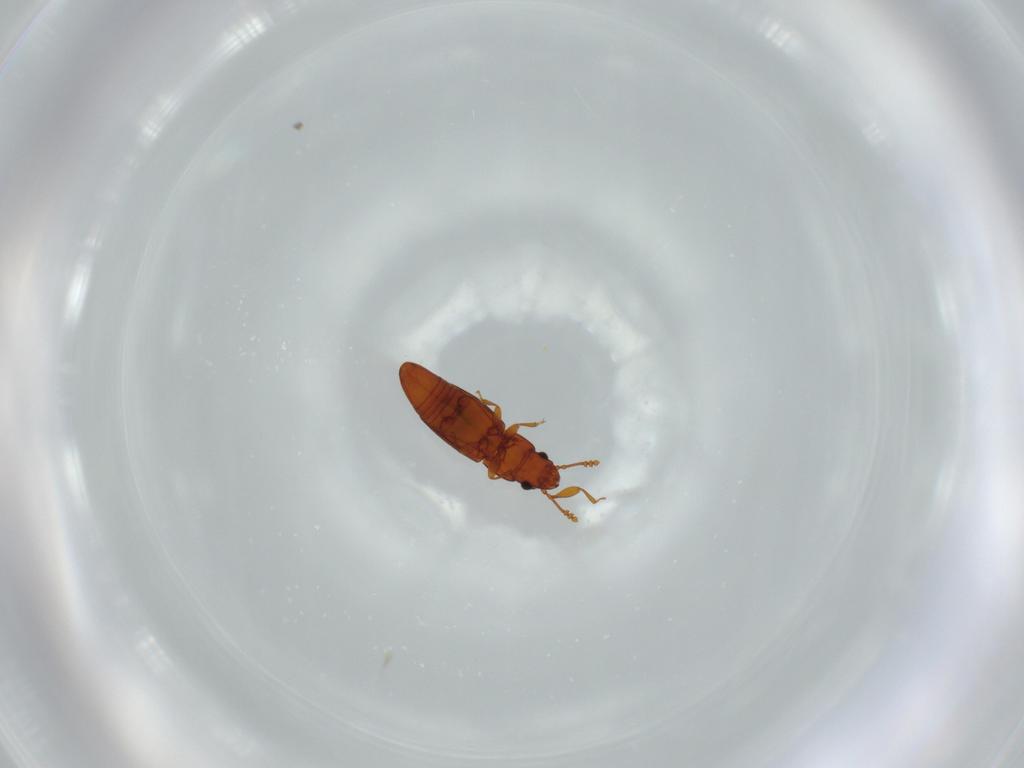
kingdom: Animalia
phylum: Arthropoda
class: Insecta
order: Coleoptera
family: Smicripidae
